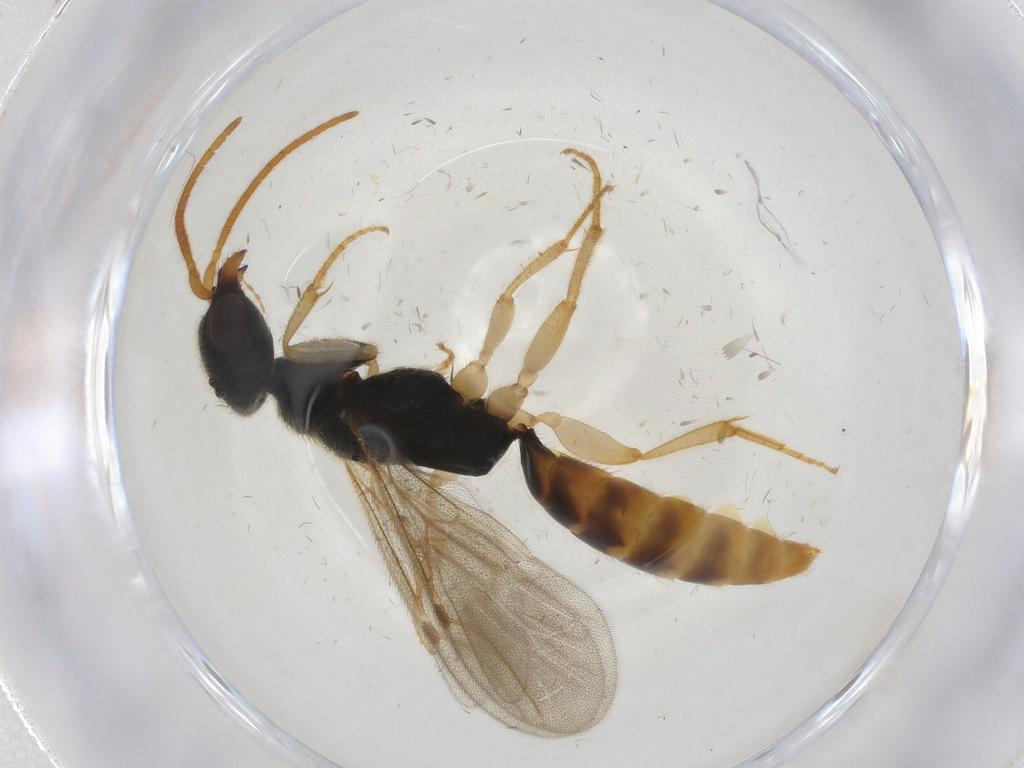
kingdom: Animalia
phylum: Arthropoda
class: Insecta
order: Hymenoptera
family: Bethylidae
